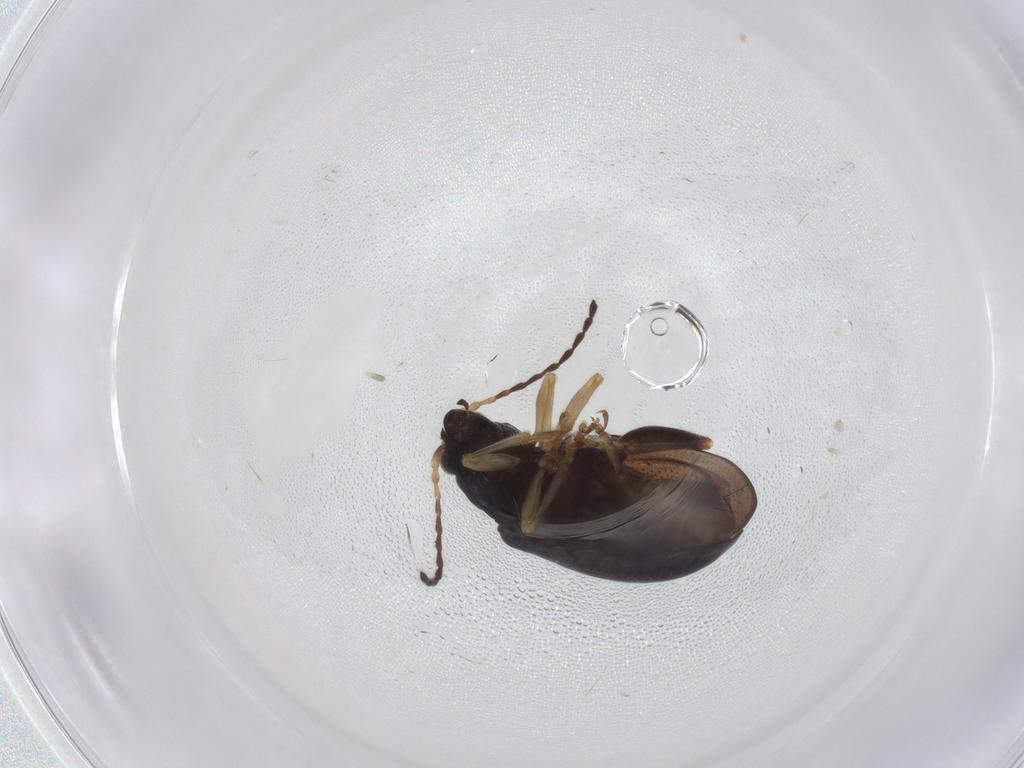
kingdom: Animalia
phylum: Arthropoda
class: Insecta
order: Coleoptera
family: Chrysomelidae
